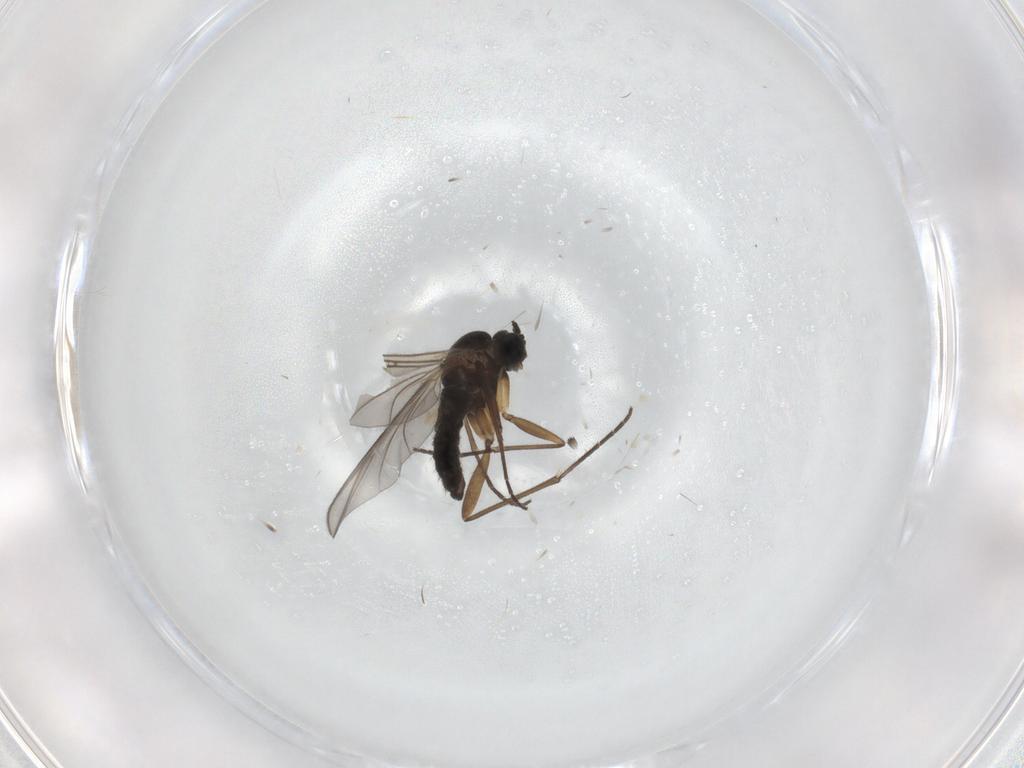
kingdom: Animalia
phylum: Arthropoda
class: Insecta
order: Diptera
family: Sciaridae
